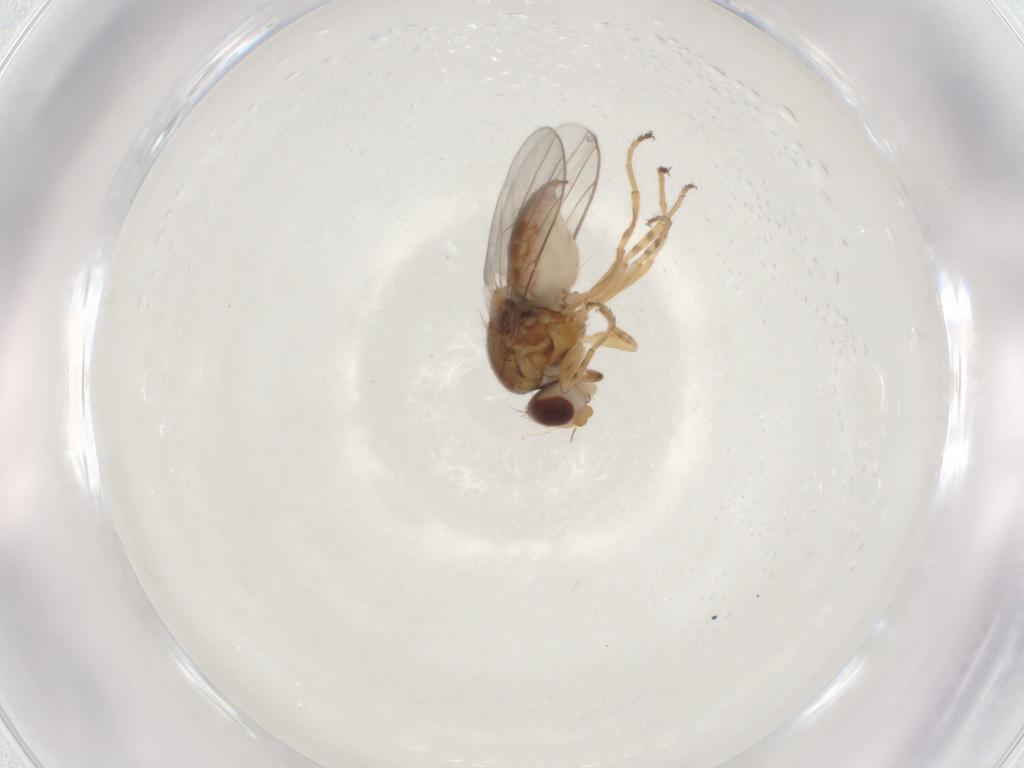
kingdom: Animalia
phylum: Arthropoda
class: Insecta
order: Diptera
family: Chloropidae
